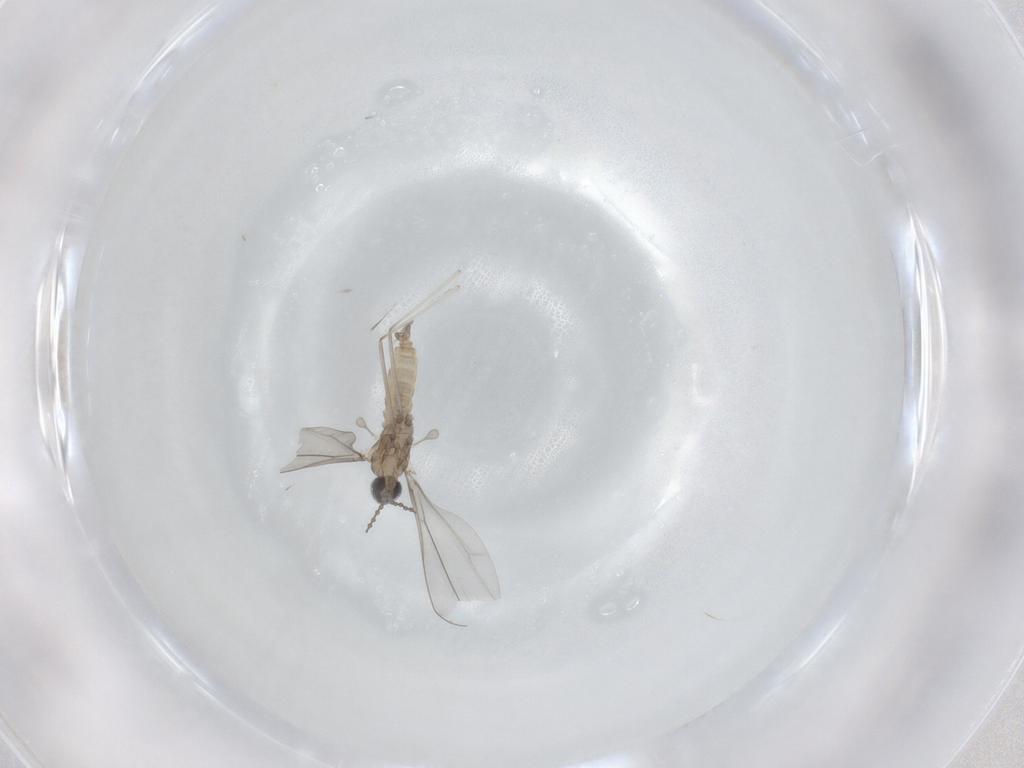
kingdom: Animalia
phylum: Arthropoda
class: Insecta
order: Diptera
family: Cecidomyiidae
